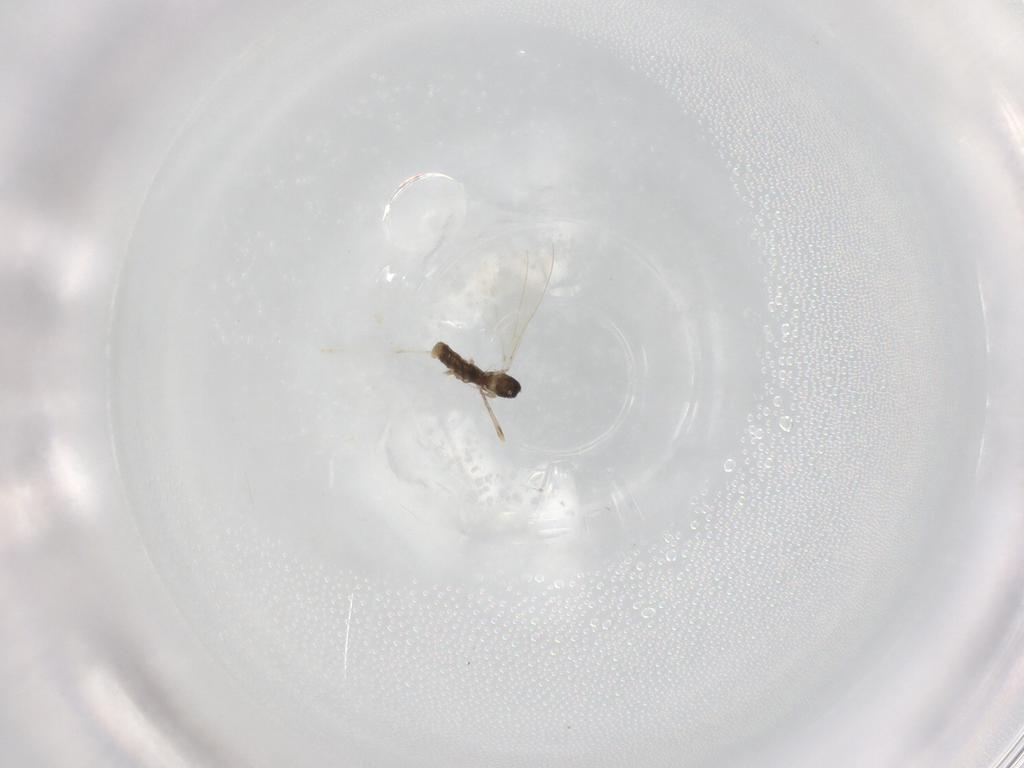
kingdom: Animalia
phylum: Arthropoda
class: Insecta
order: Diptera
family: Cecidomyiidae
